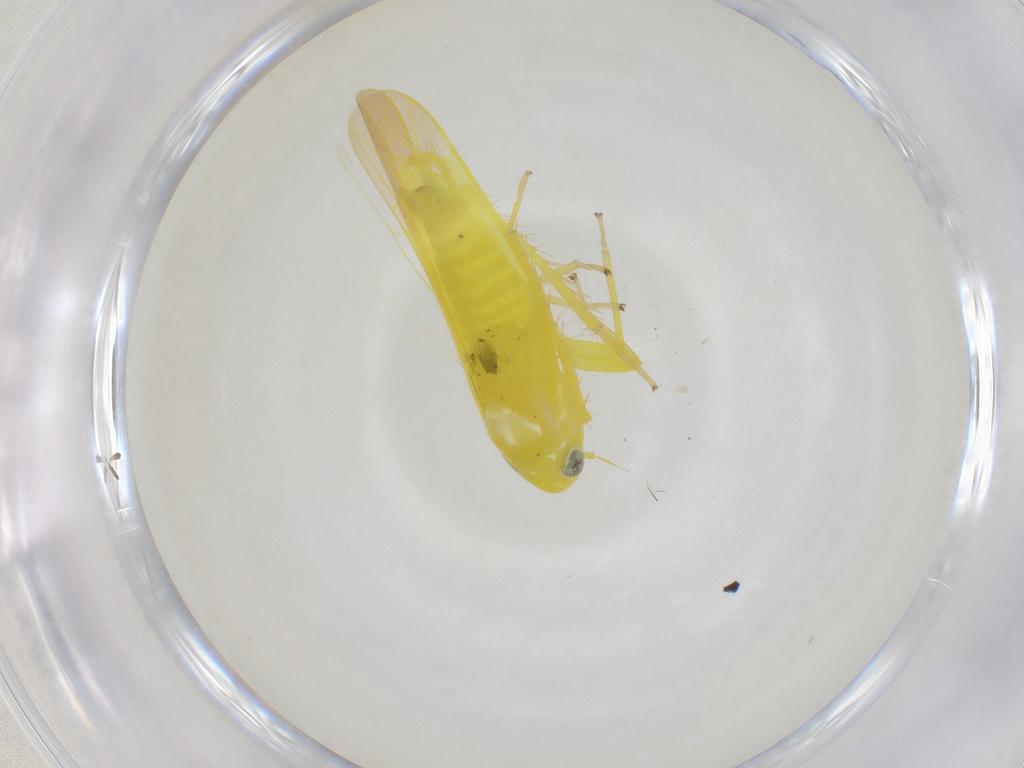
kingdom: Animalia
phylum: Arthropoda
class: Insecta
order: Hemiptera
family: Cicadellidae
